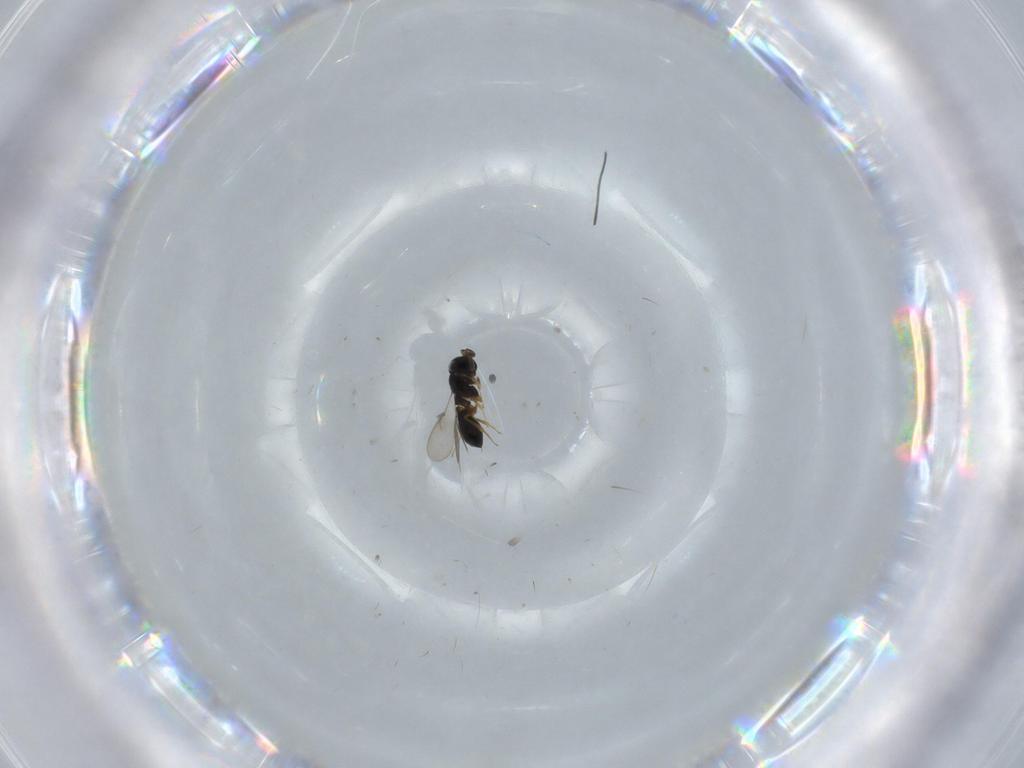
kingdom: Animalia
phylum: Arthropoda
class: Insecta
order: Hymenoptera
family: Scelionidae
